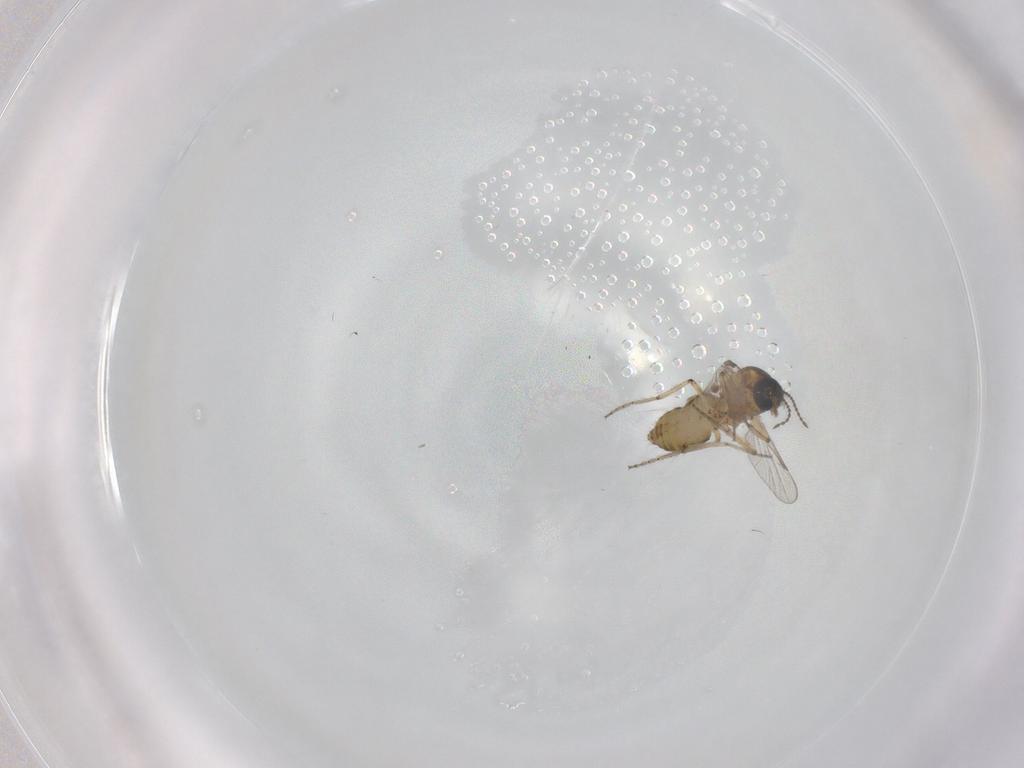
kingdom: Animalia
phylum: Arthropoda
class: Insecta
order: Diptera
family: Ceratopogonidae
